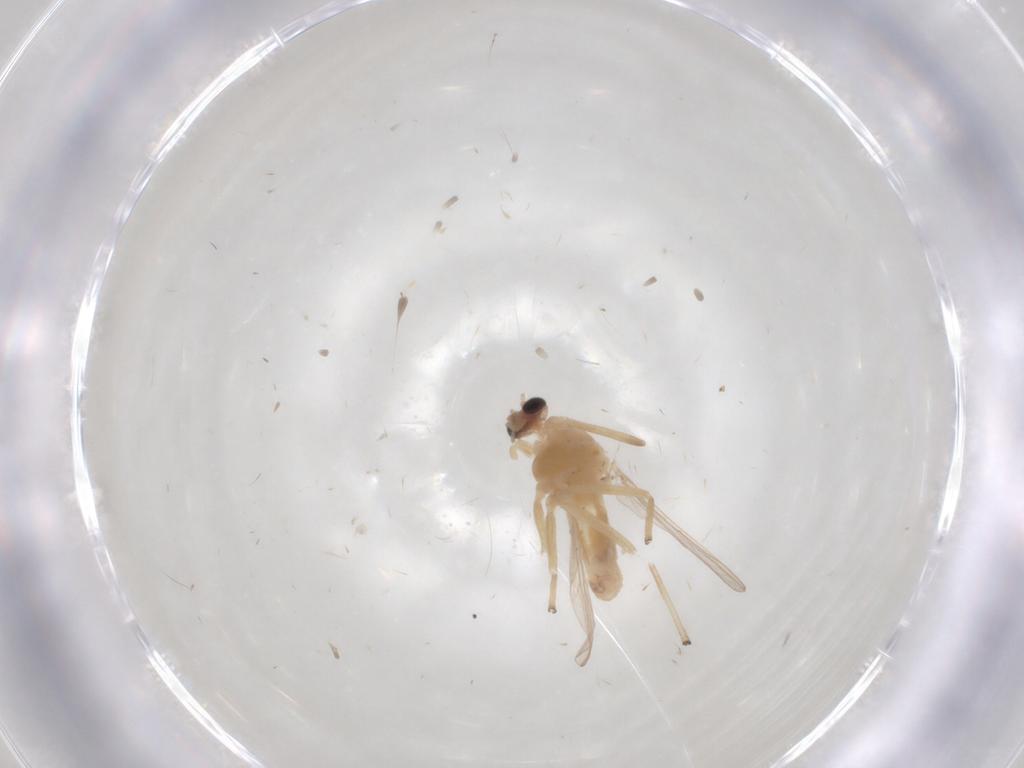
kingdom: Animalia
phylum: Arthropoda
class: Insecta
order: Diptera
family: Chironomidae
